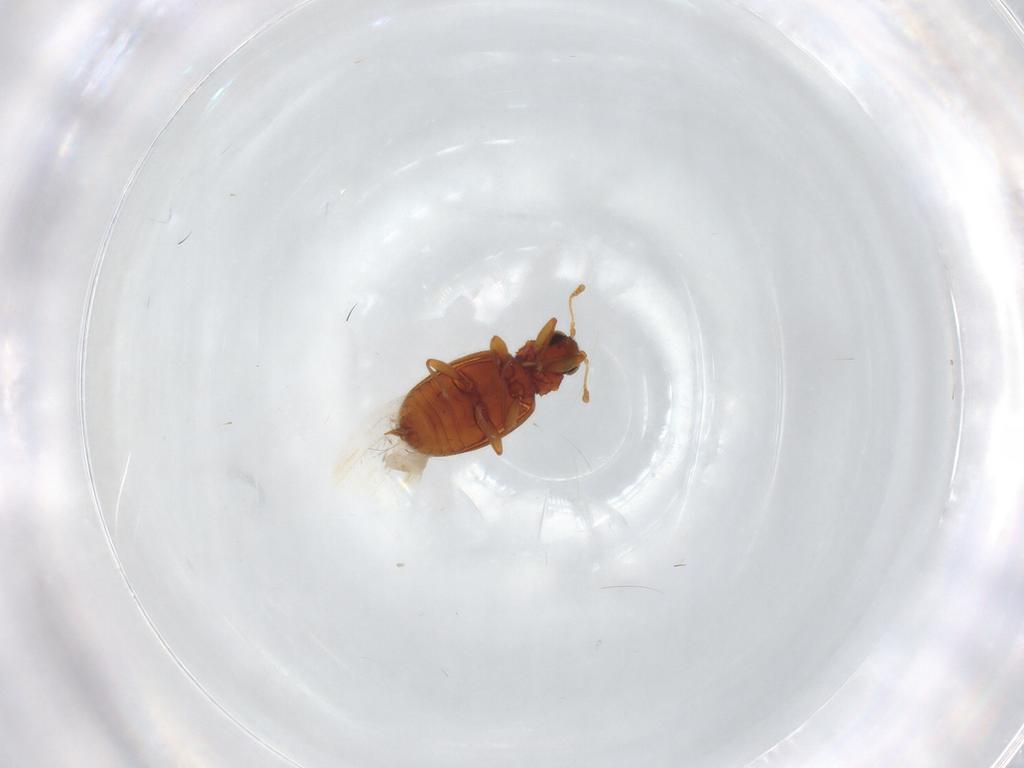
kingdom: Animalia
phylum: Arthropoda
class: Insecta
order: Coleoptera
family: Latridiidae
